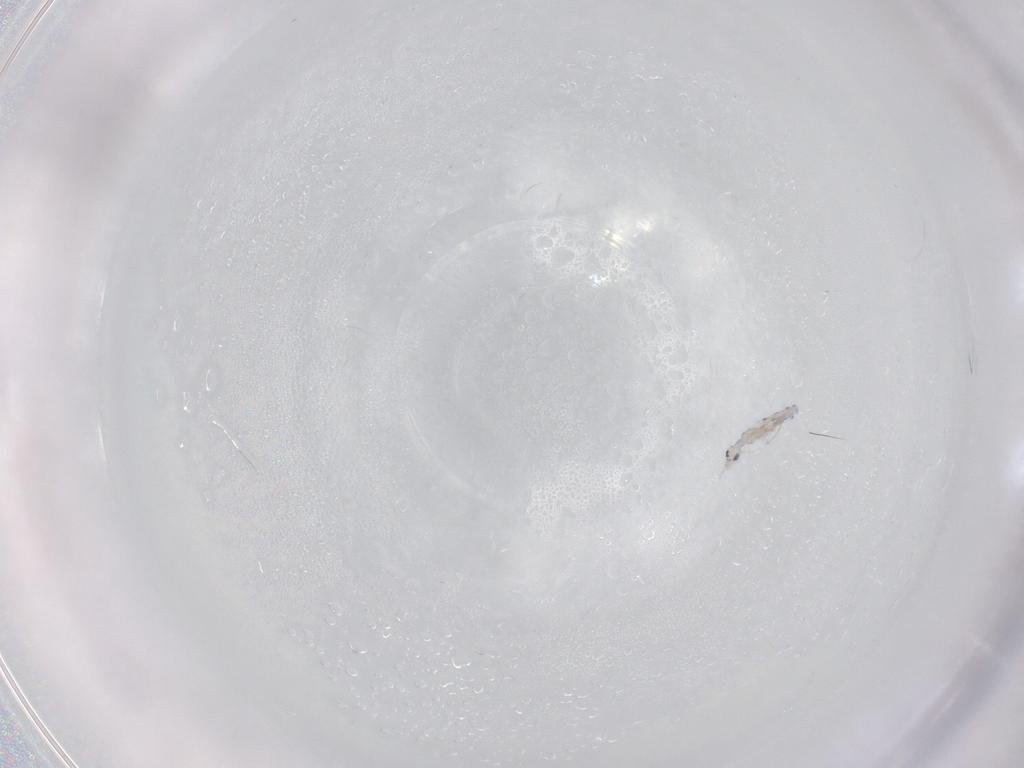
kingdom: Animalia
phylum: Arthropoda
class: Collembola
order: Entomobryomorpha
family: Entomobryidae
